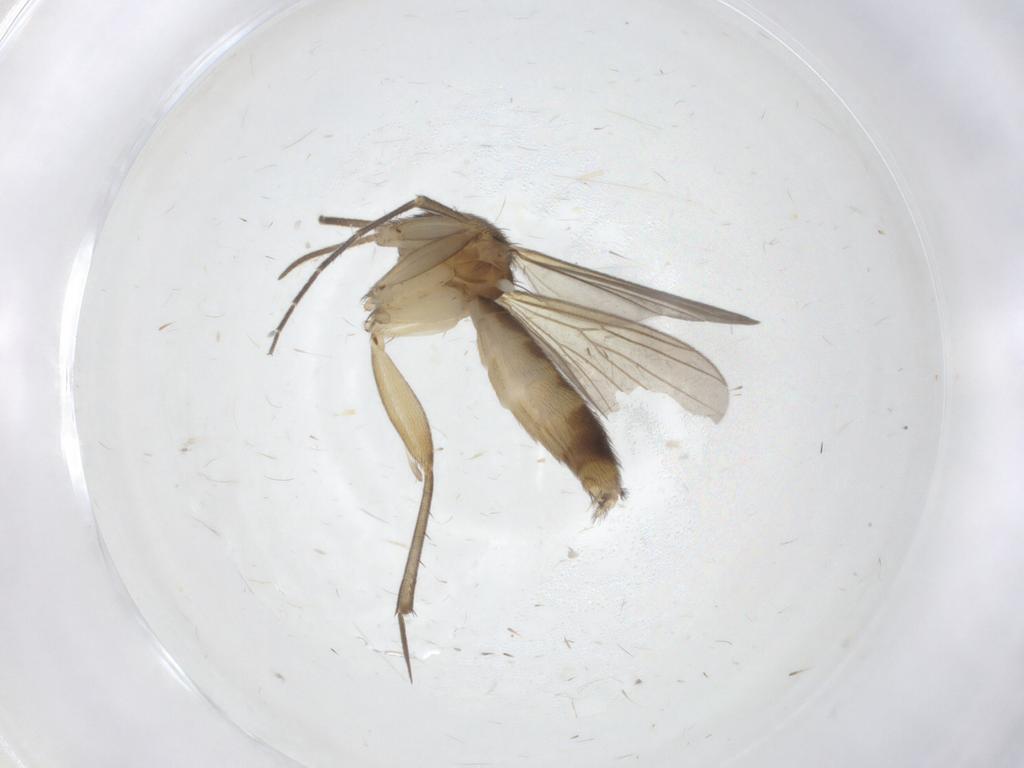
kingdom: Animalia
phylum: Arthropoda
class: Insecta
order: Diptera
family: Mycetophilidae
